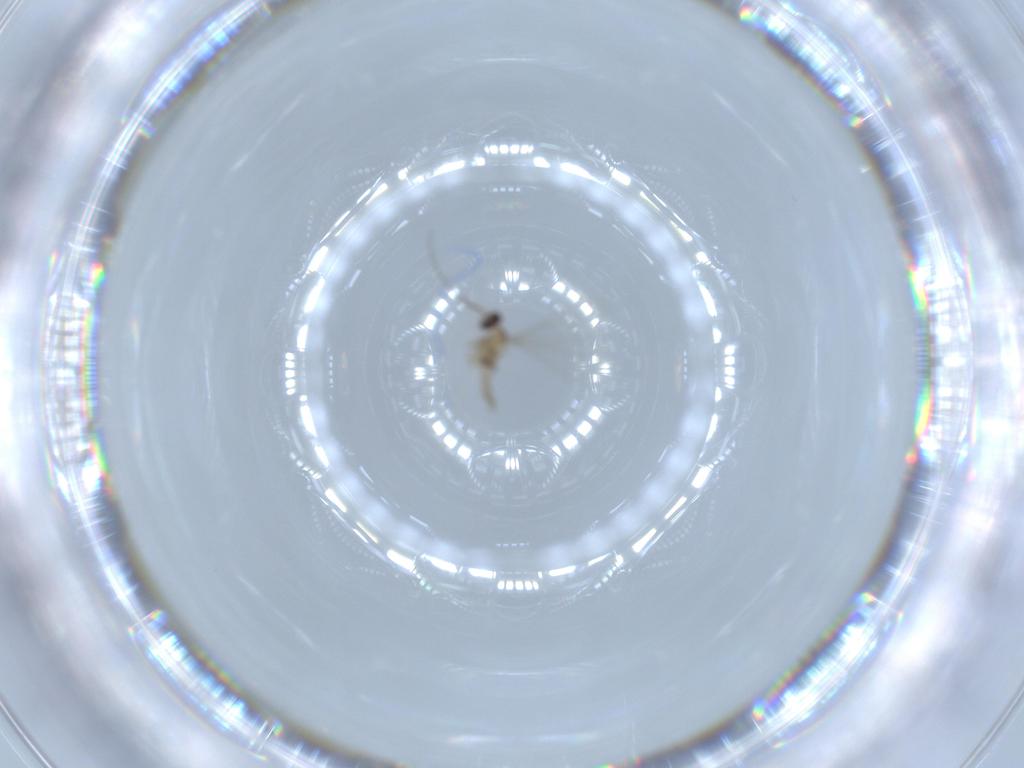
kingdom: Animalia
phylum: Arthropoda
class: Insecta
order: Diptera
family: Cecidomyiidae
